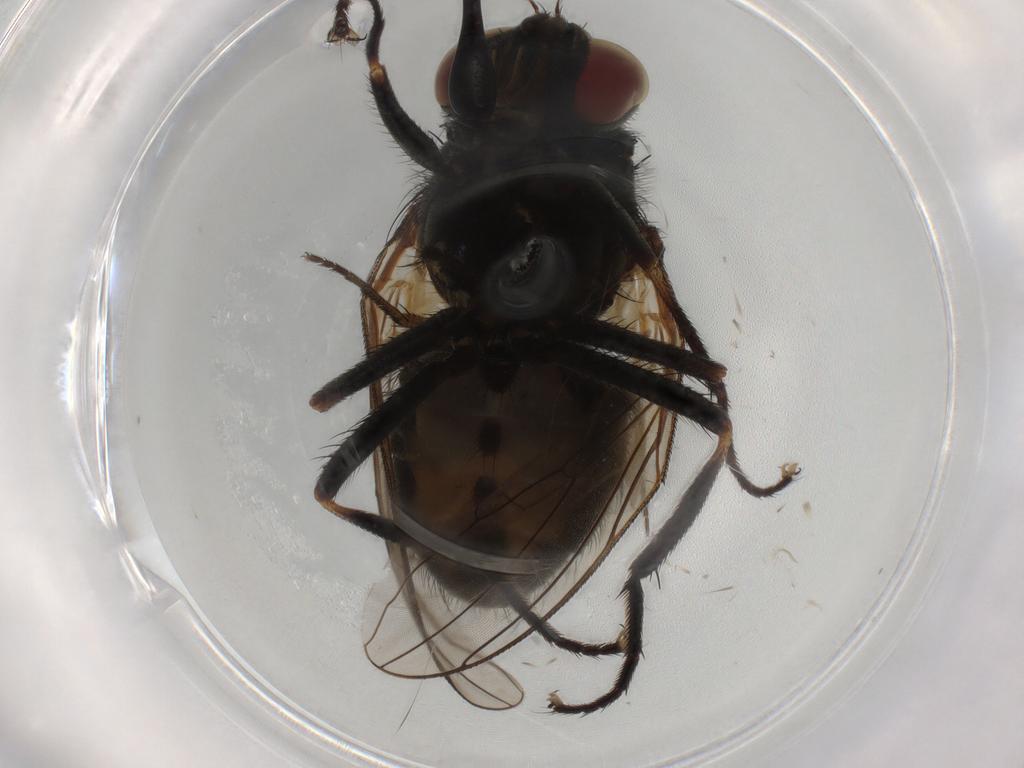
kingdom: Animalia
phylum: Arthropoda
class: Insecta
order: Diptera
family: Muscidae
